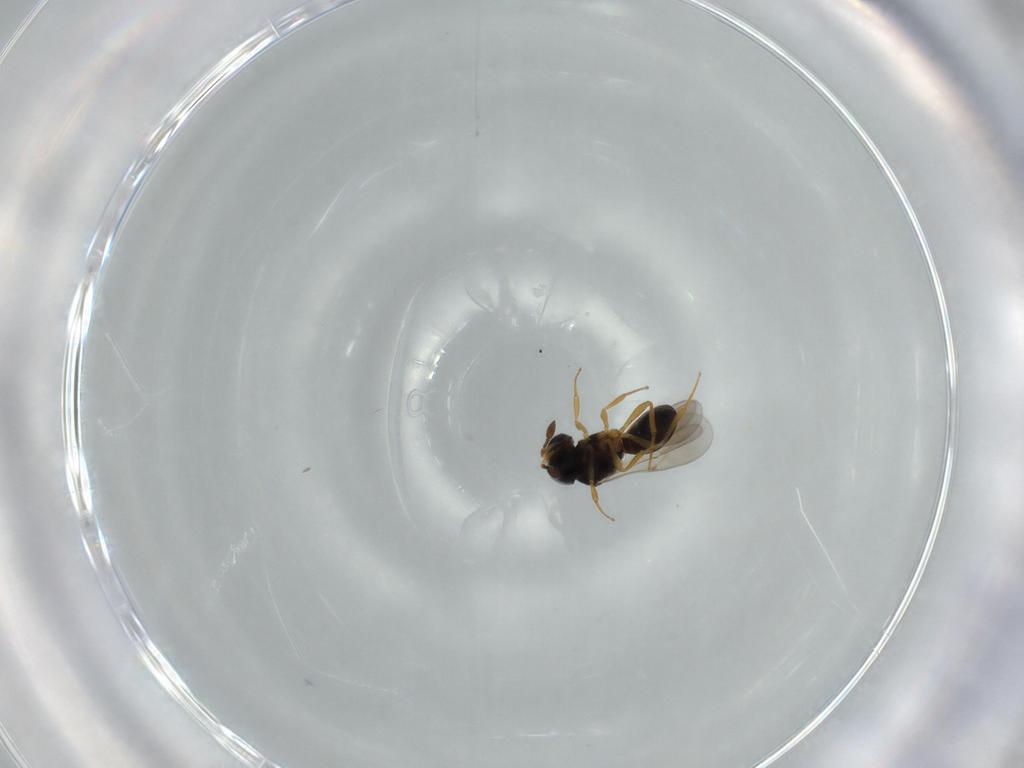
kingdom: Animalia
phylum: Arthropoda
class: Insecta
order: Hymenoptera
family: Scelionidae
